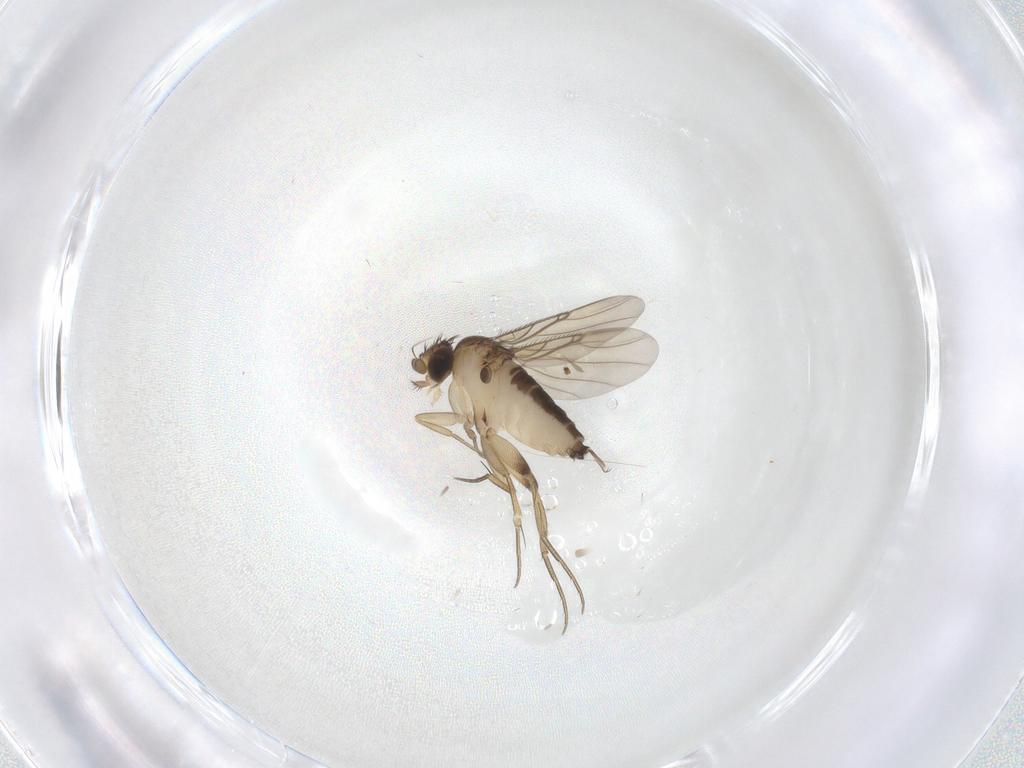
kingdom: Animalia
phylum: Arthropoda
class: Insecta
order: Diptera
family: Phoridae
